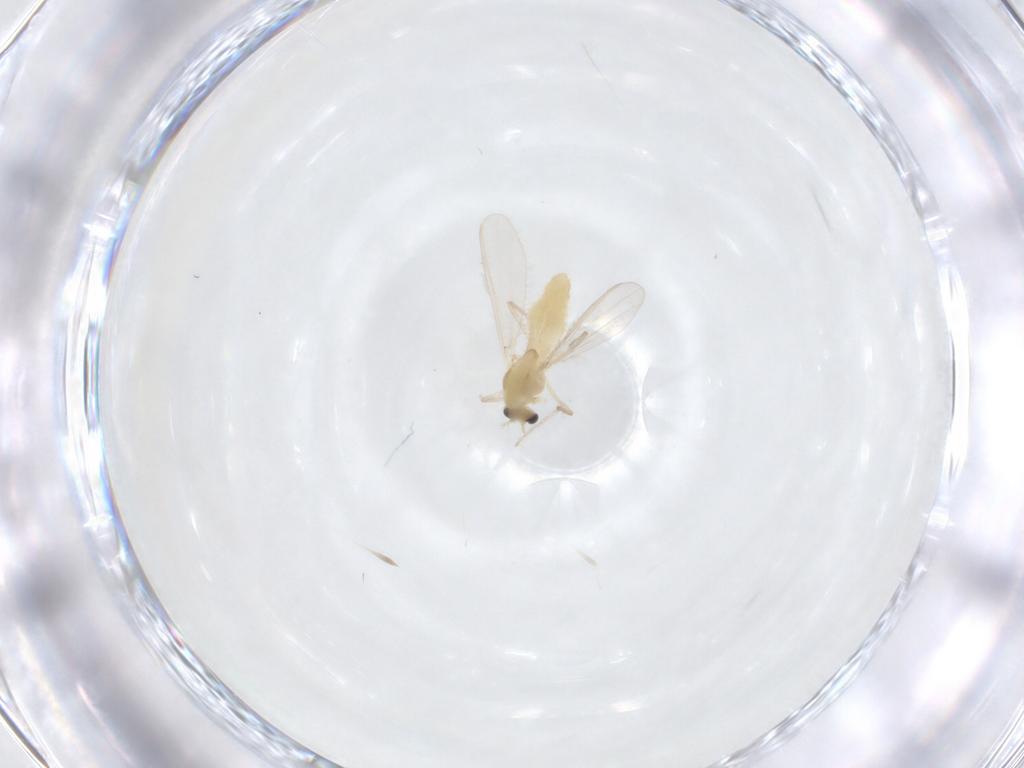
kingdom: Animalia
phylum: Arthropoda
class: Insecta
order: Diptera
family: Chironomidae
